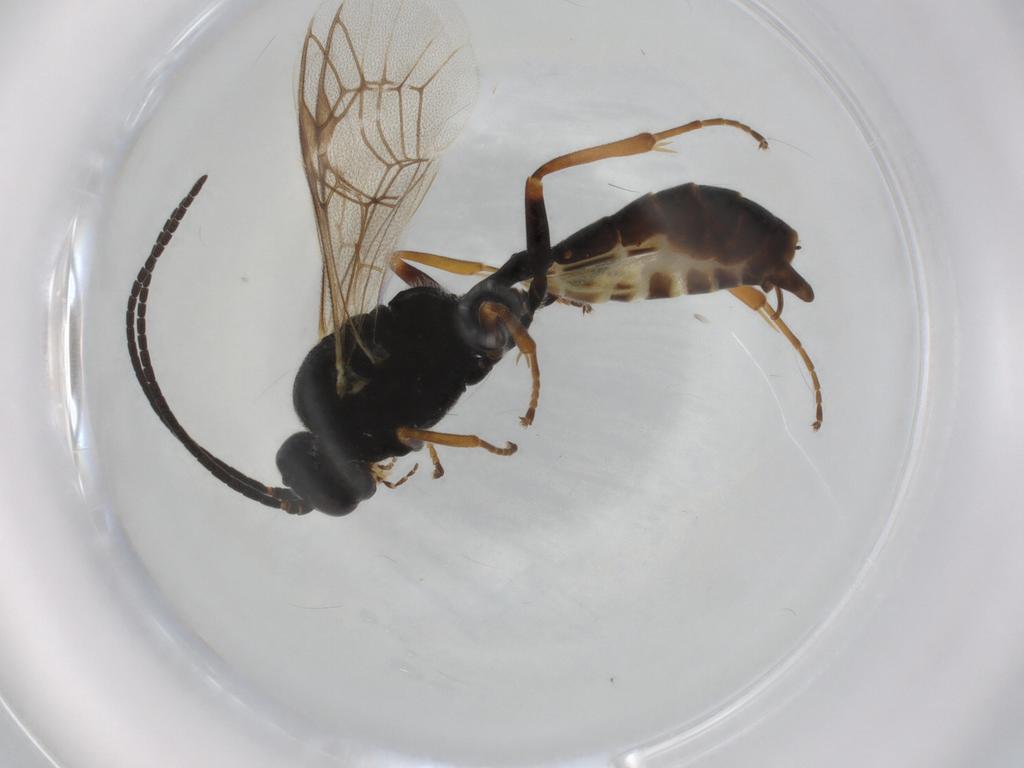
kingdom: Animalia
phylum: Arthropoda
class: Insecta
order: Hymenoptera
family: Ichneumonidae
